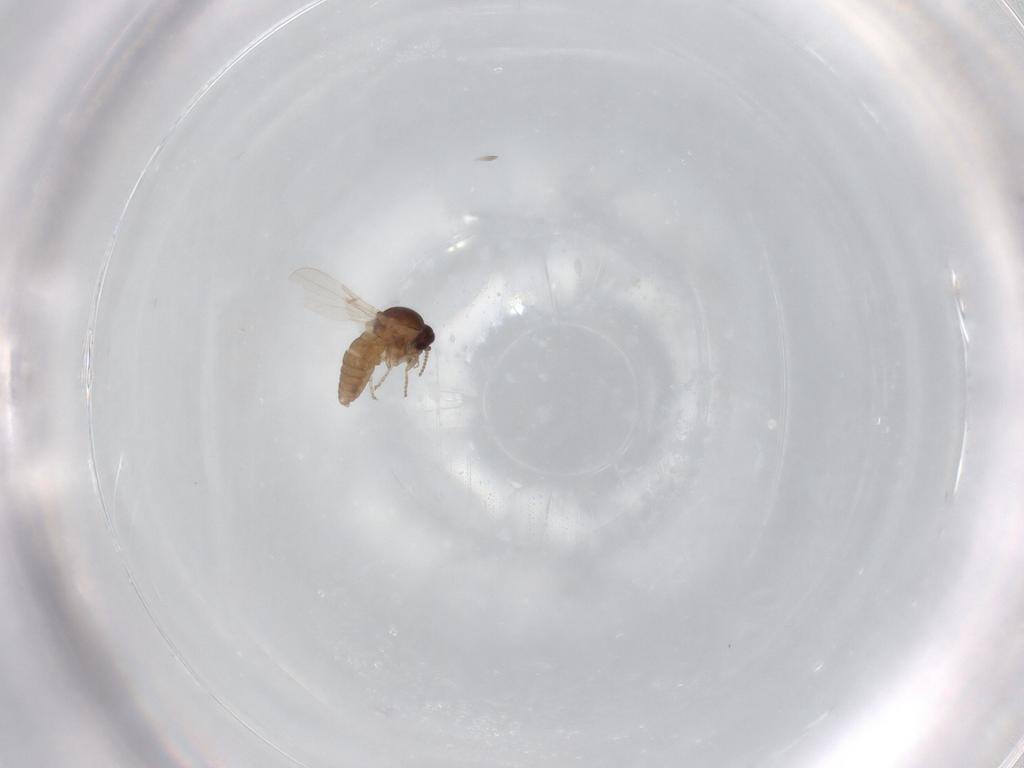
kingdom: Animalia
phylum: Arthropoda
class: Insecta
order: Diptera
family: Ceratopogonidae
